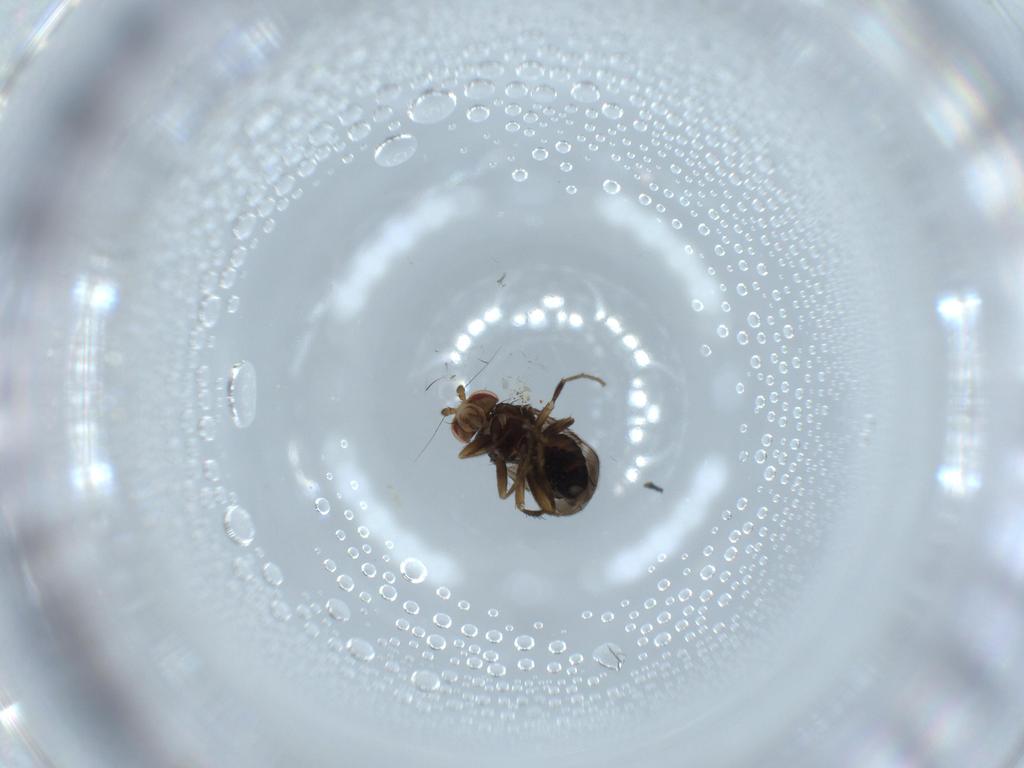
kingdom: Animalia
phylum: Arthropoda
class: Insecta
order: Diptera
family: Sphaeroceridae
